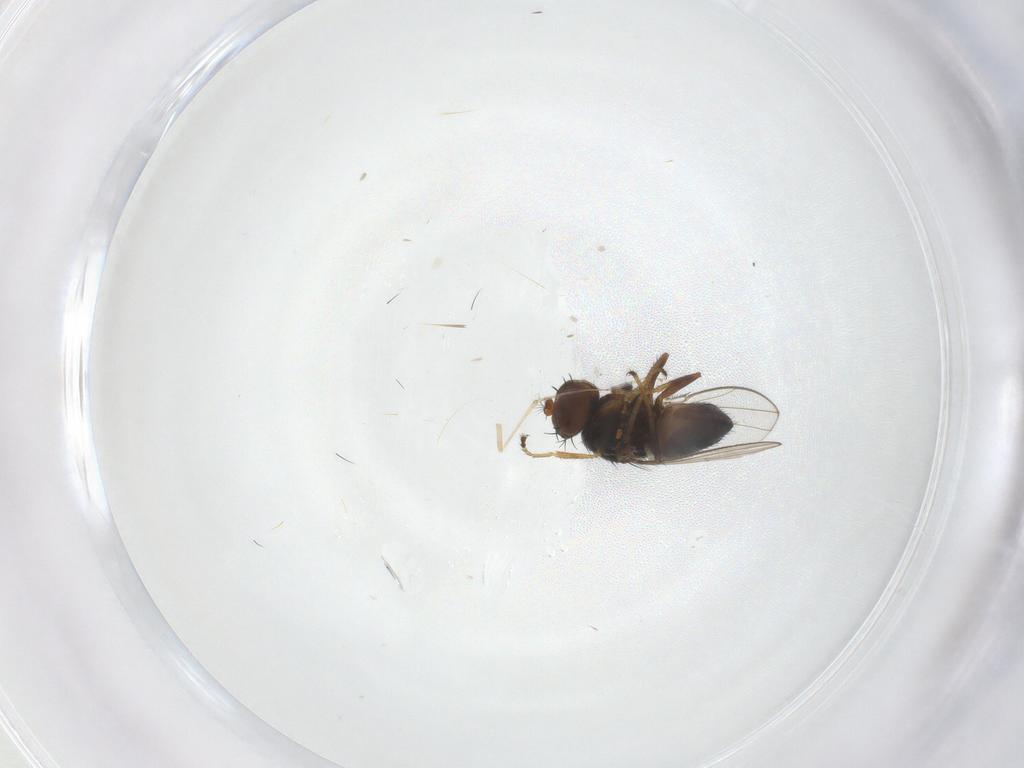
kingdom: Animalia
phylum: Arthropoda
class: Insecta
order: Diptera
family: Ephydridae
